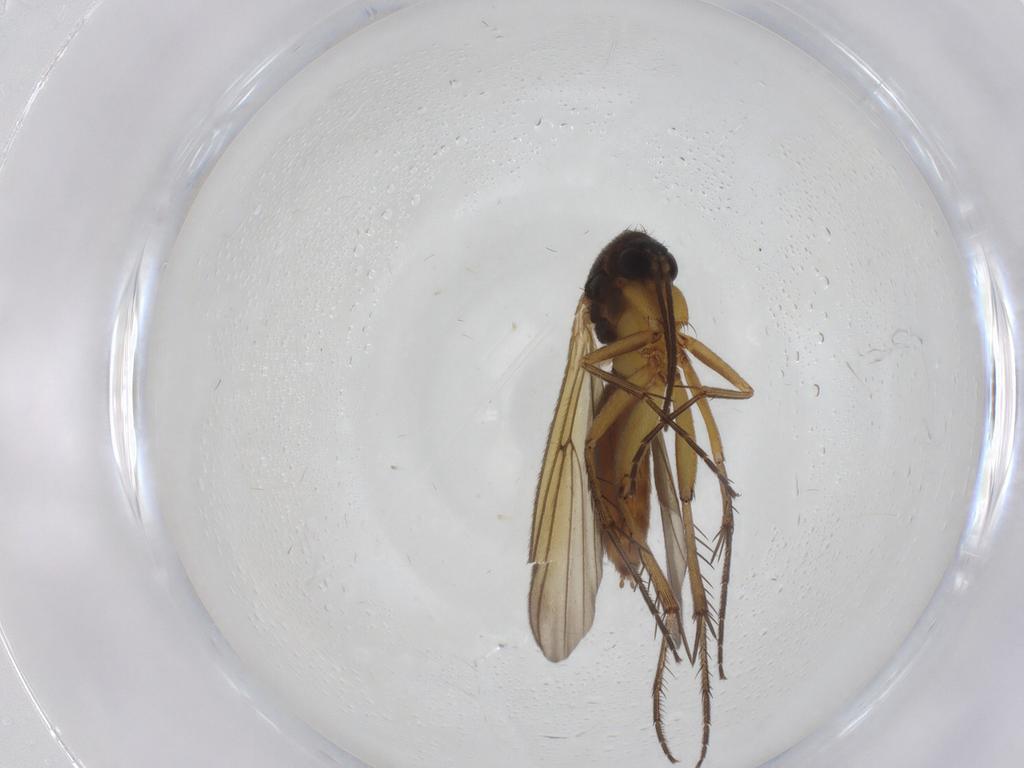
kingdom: Animalia
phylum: Arthropoda
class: Insecta
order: Diptera
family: Mycetophilidae
